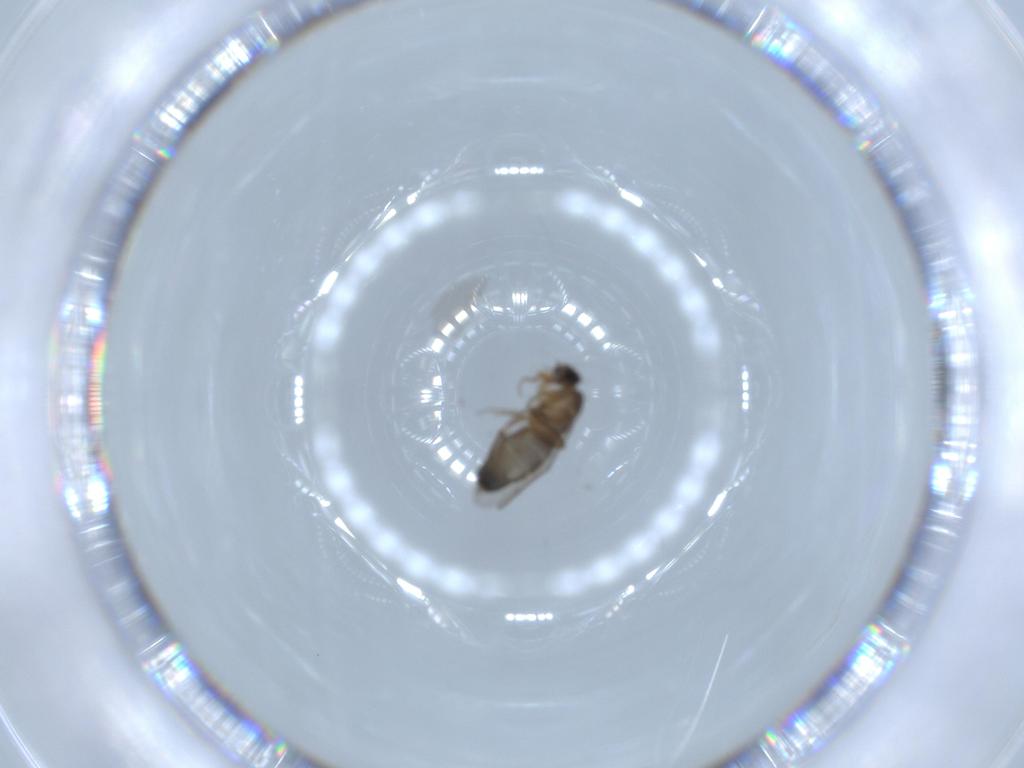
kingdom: Animalia
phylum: Arthropoda
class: Insecta
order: Diptera
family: Phoridae
